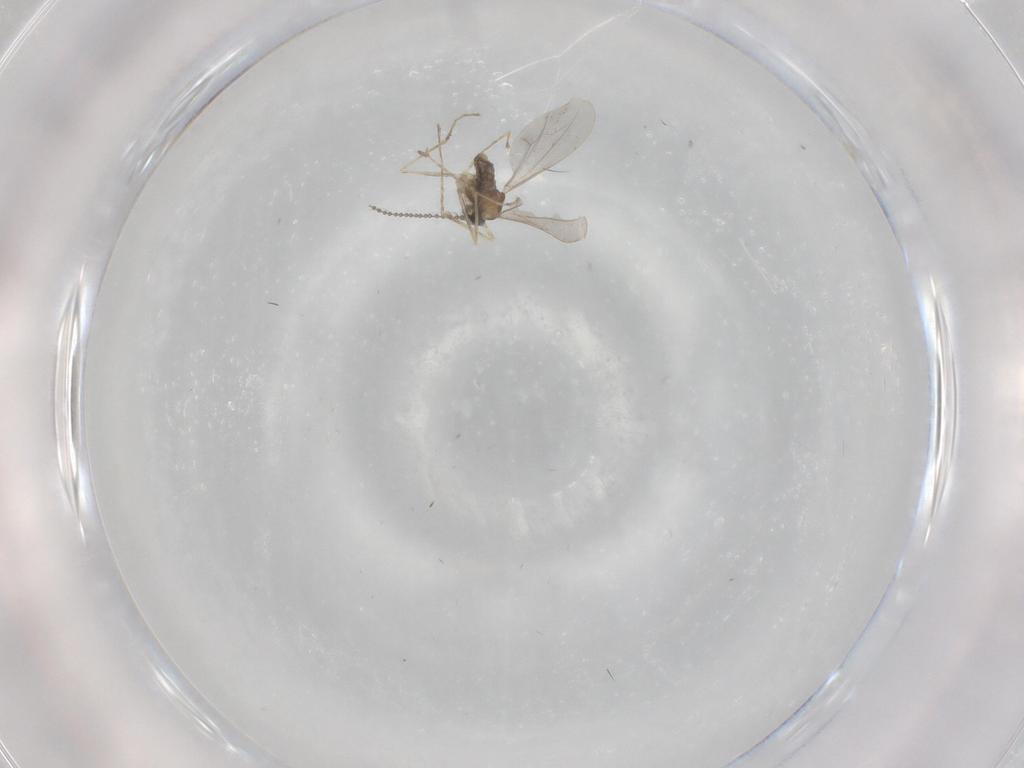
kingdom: Animalia
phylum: Arthropoda
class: Insecta
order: Diptera
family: Cecidomyiidae
